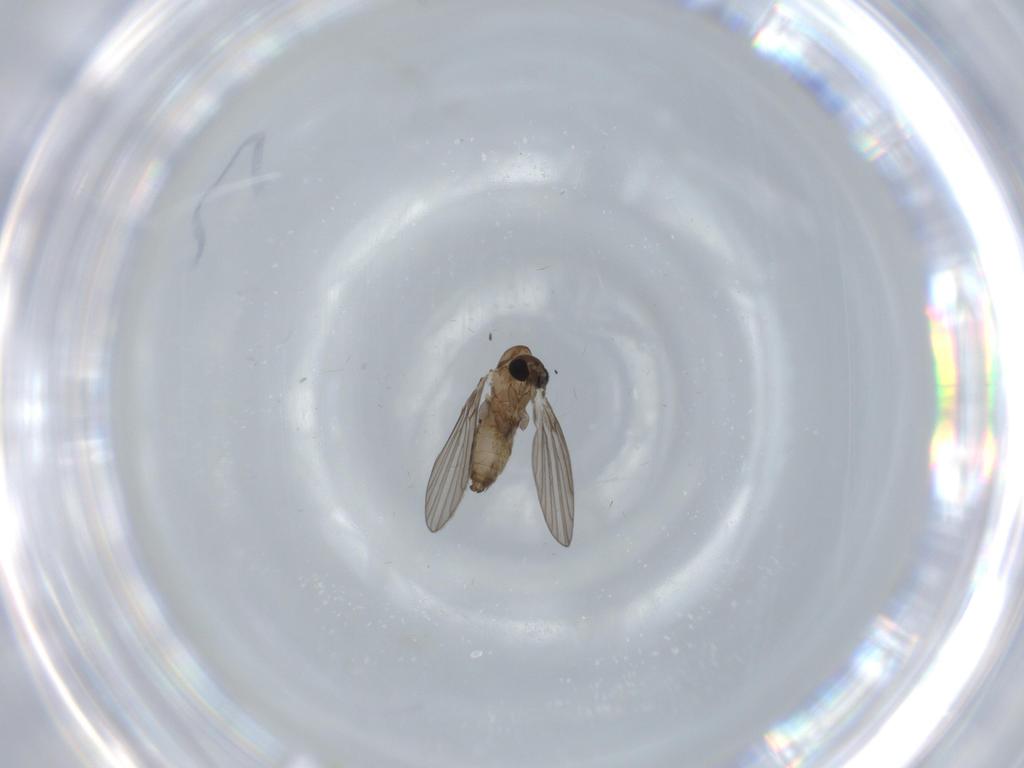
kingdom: Animalia
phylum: Arthropoda
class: Insecta
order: Diptera
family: Psychodidae
